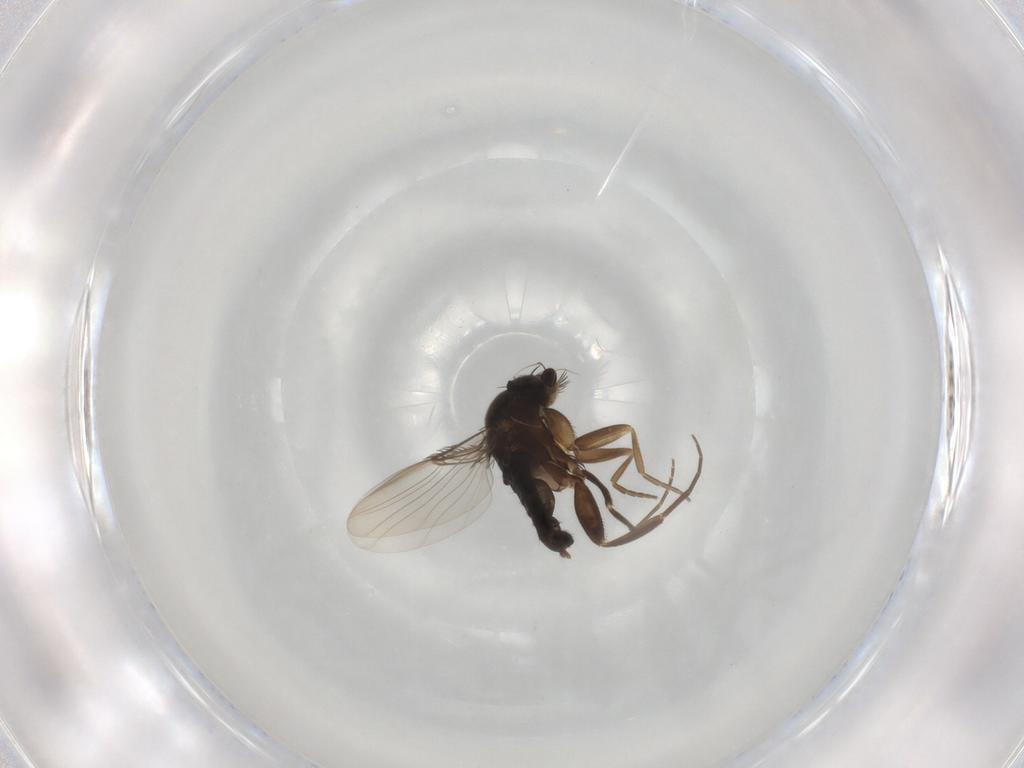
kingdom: Animalia
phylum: Arthropoda
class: Insecta
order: Diptera
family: Phoridae
